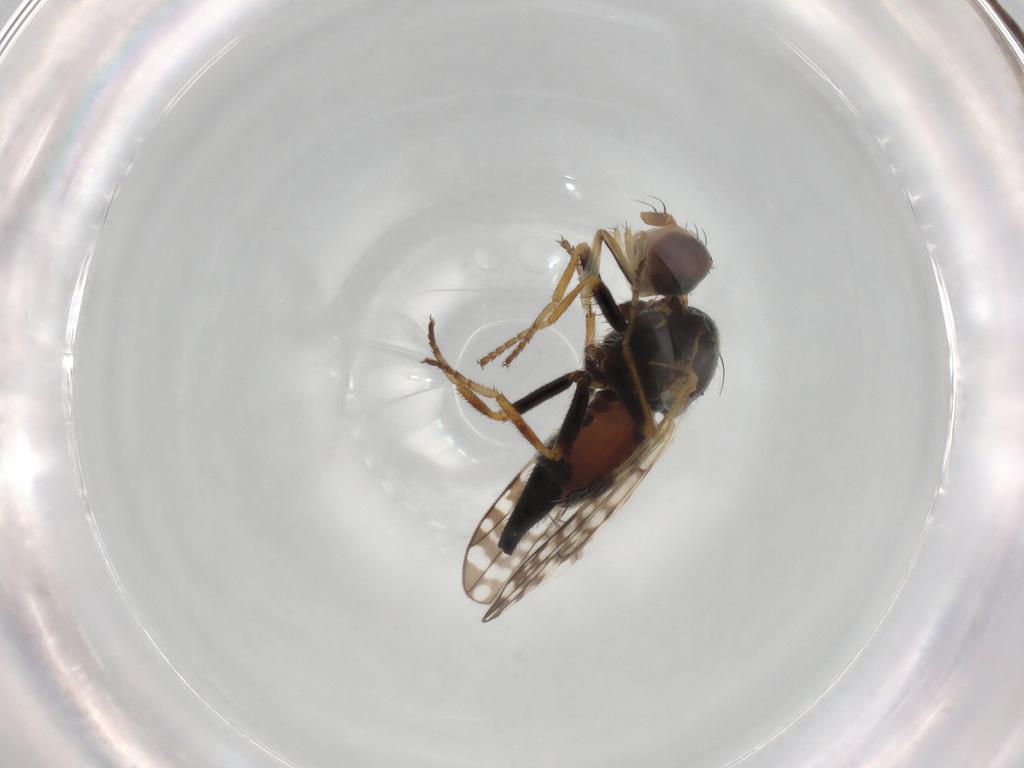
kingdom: Animalia
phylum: Arthropoda
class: Insecta
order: Diptera
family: Tephritidae
